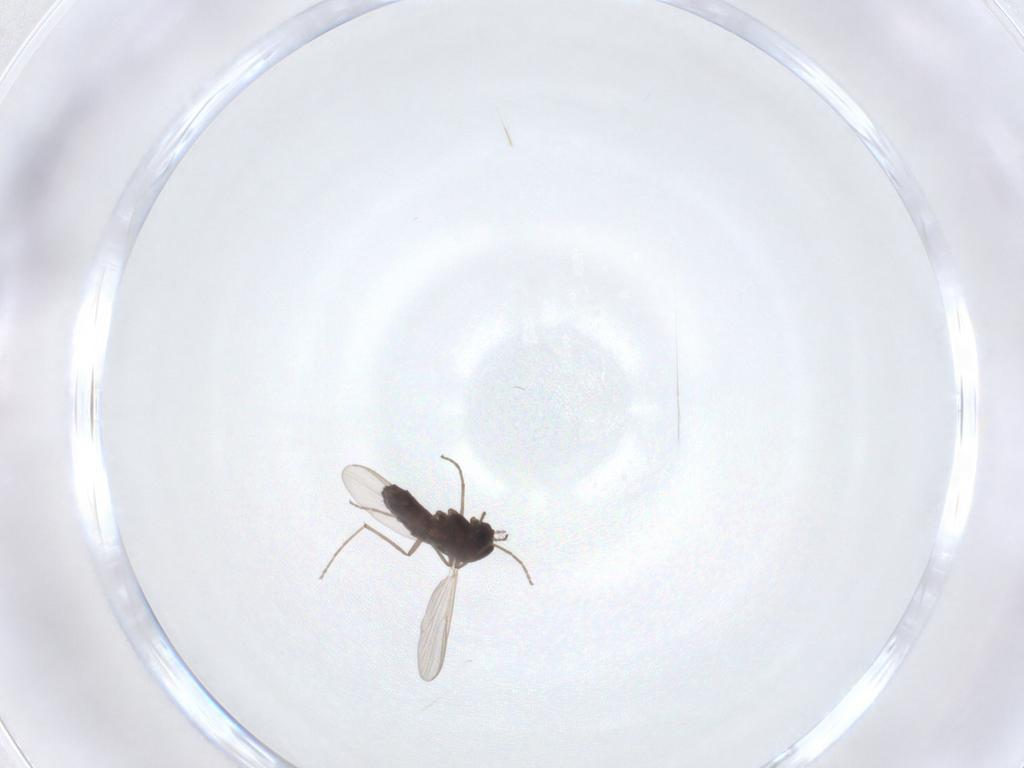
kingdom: Animalia
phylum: Arthropoda
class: Insecta
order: Diptera
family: Chironomidae
